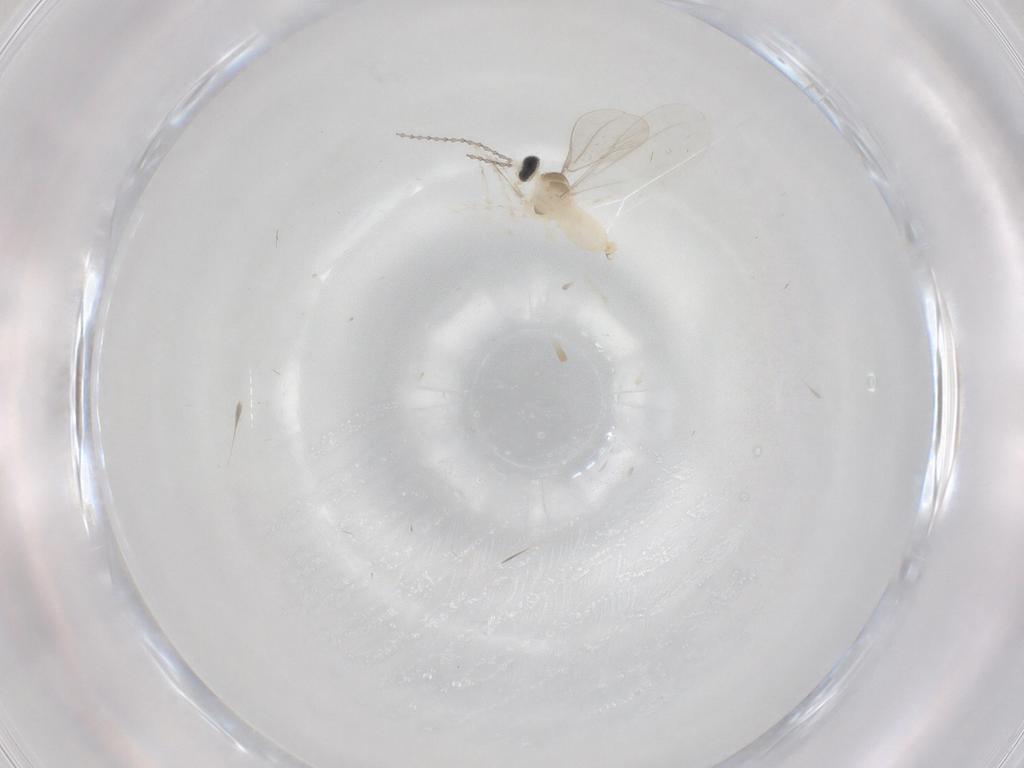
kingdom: Animalia
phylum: Arthropoda
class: Insecta
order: Diptera
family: Cecidomyiidae
